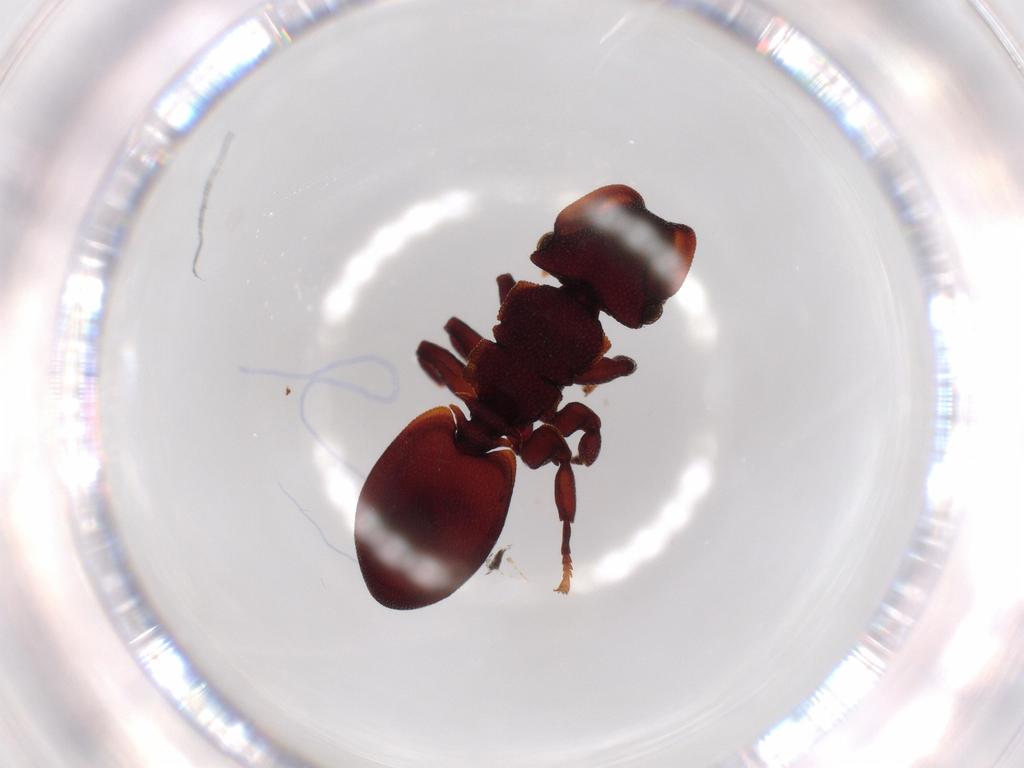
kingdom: Animalia
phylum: Arthropoda
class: Insecta
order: Hymenoptera
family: Formicidae
